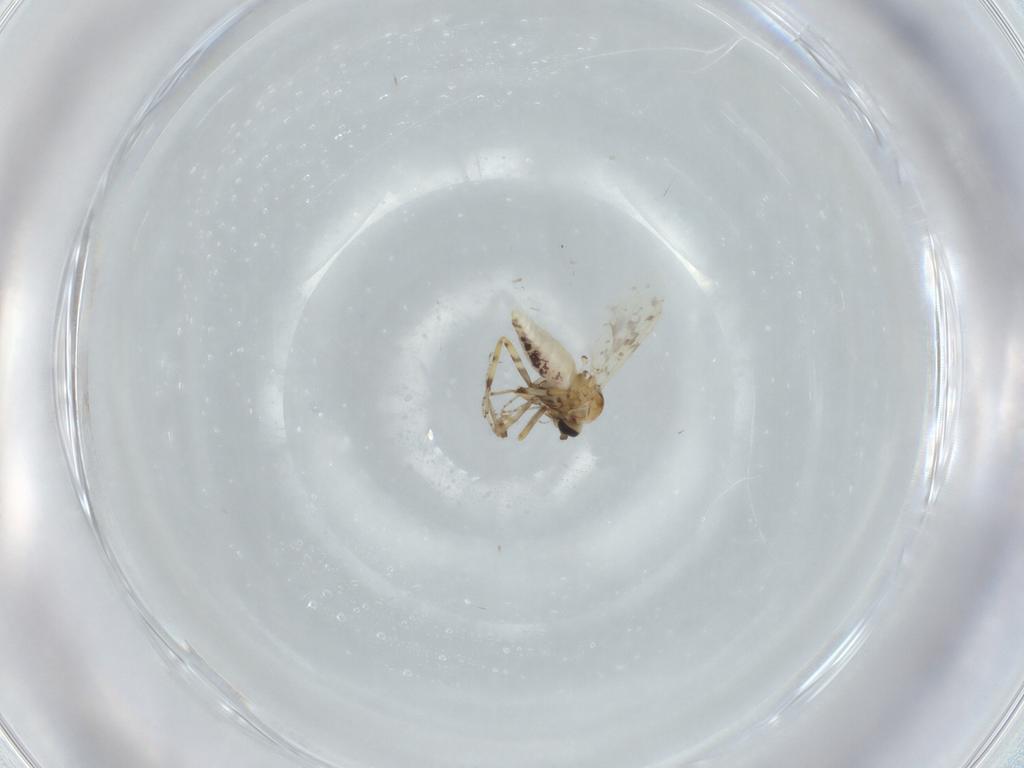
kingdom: Animalia
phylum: Arthropoda
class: Insecta
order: Diptera
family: Ceratopogonidae
